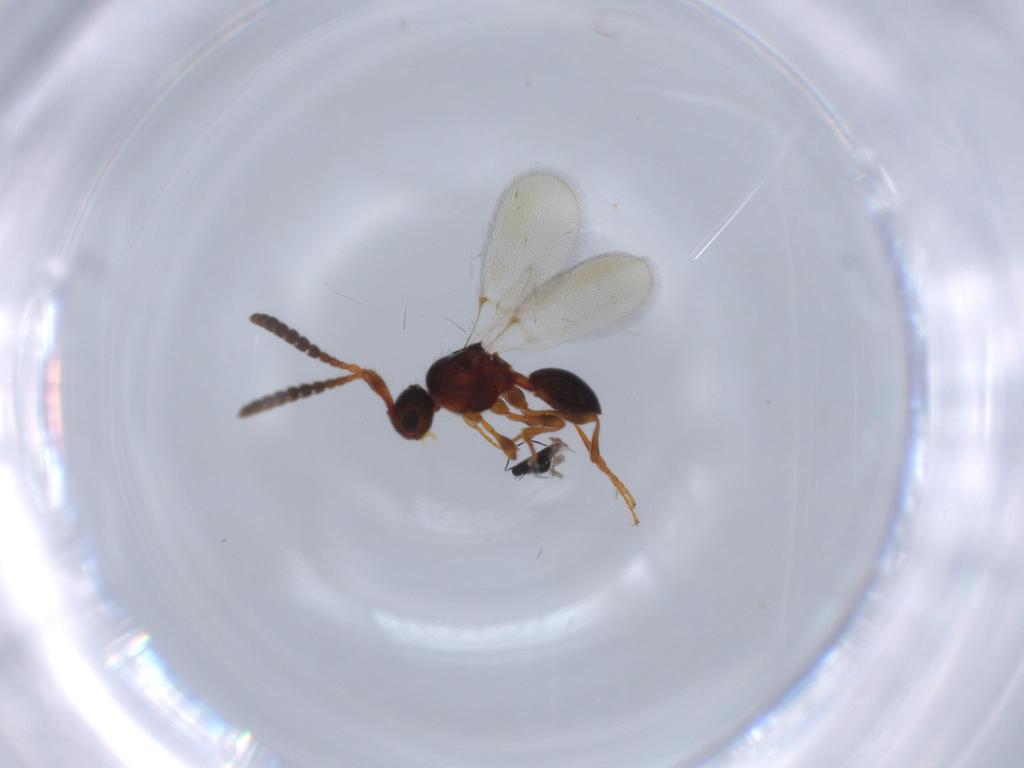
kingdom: Animalia
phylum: Arthropoda
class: Insecta
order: Hymenoptera
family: Diapriidae
